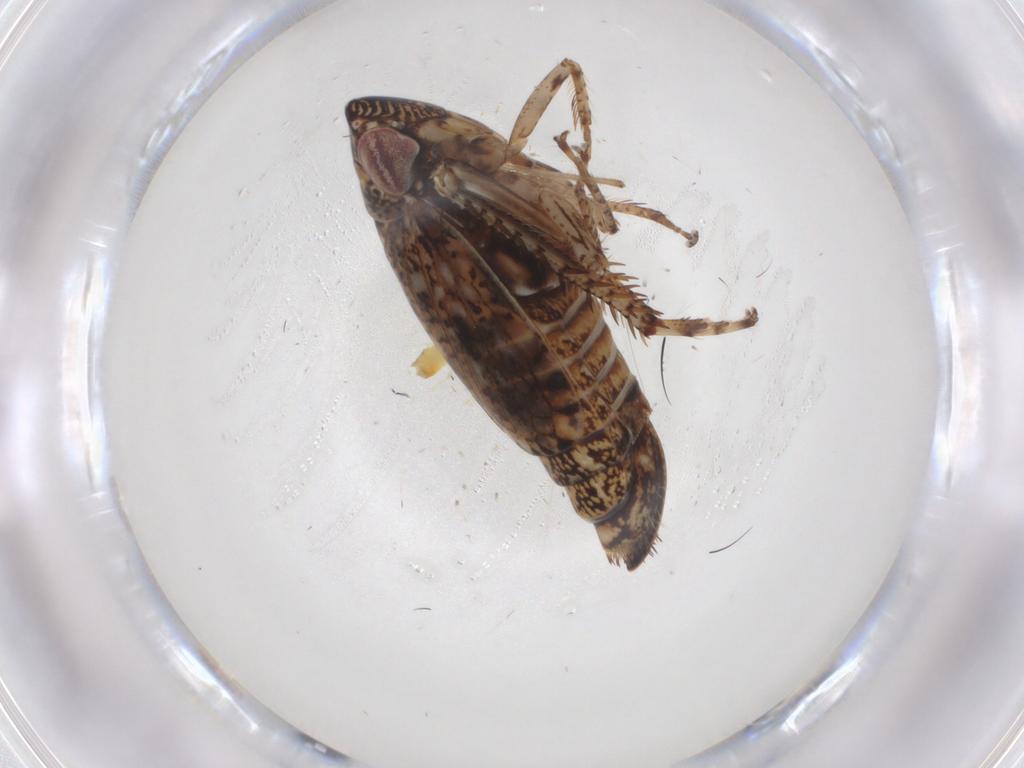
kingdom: Animalia
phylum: Arthropoda
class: Insecta
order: Hemiptera
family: Cicadellidae
